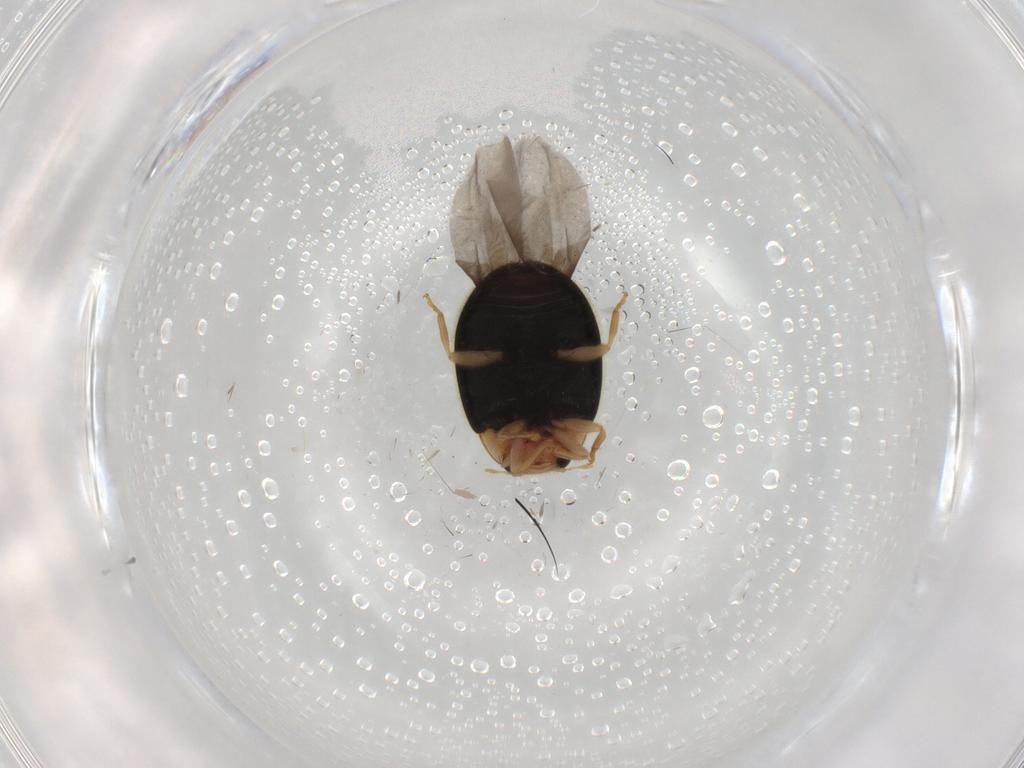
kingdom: Animalia
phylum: Arthropoda
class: Insecta
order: Coleoptera
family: Coccinellidae
